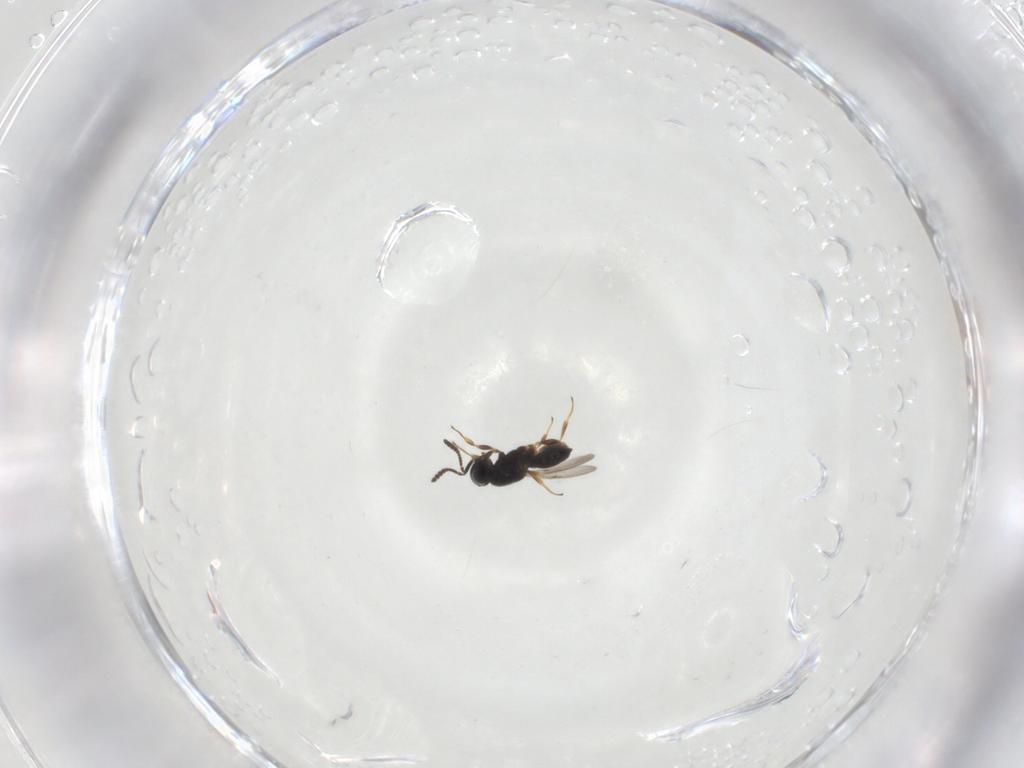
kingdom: Animalia
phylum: Arthropoda
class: Insecta
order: Hymenoptera
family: Scelionidae
